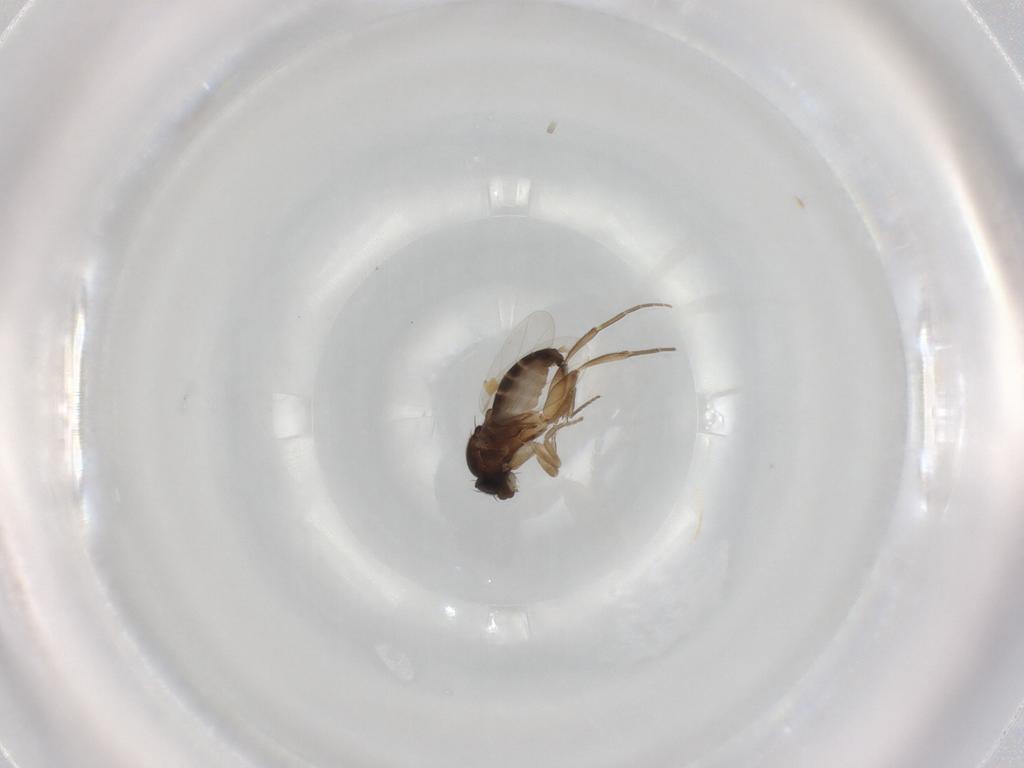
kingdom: Animalia
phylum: Arthropoda
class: Insecta
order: Diptera
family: Phoridae
